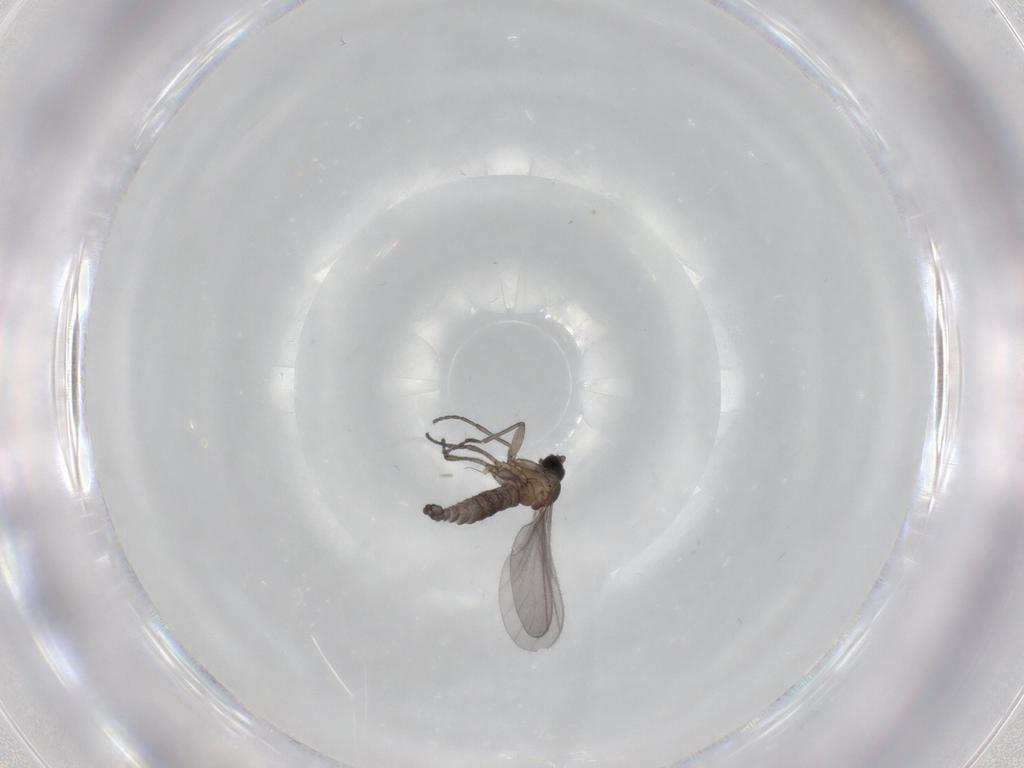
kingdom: Animalia
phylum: Arthropoda
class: Insecta
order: Diptera
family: Sciaridae
